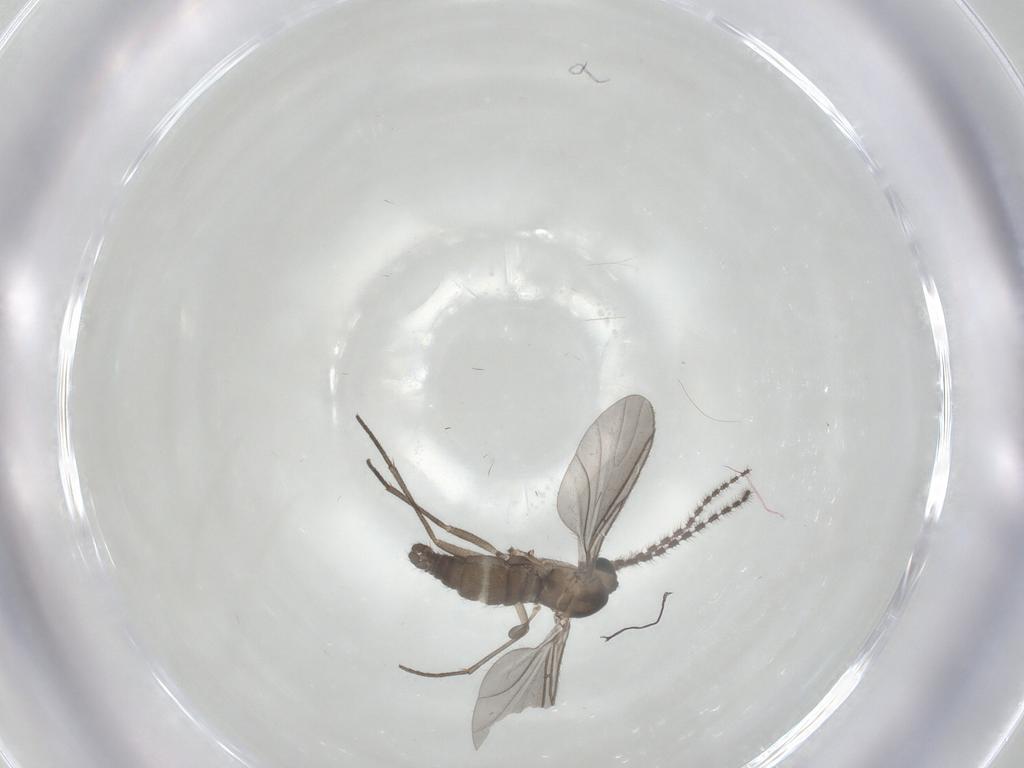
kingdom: Animalia
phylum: Arthropoda
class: Insecta
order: Diptera
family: Sciaridae
